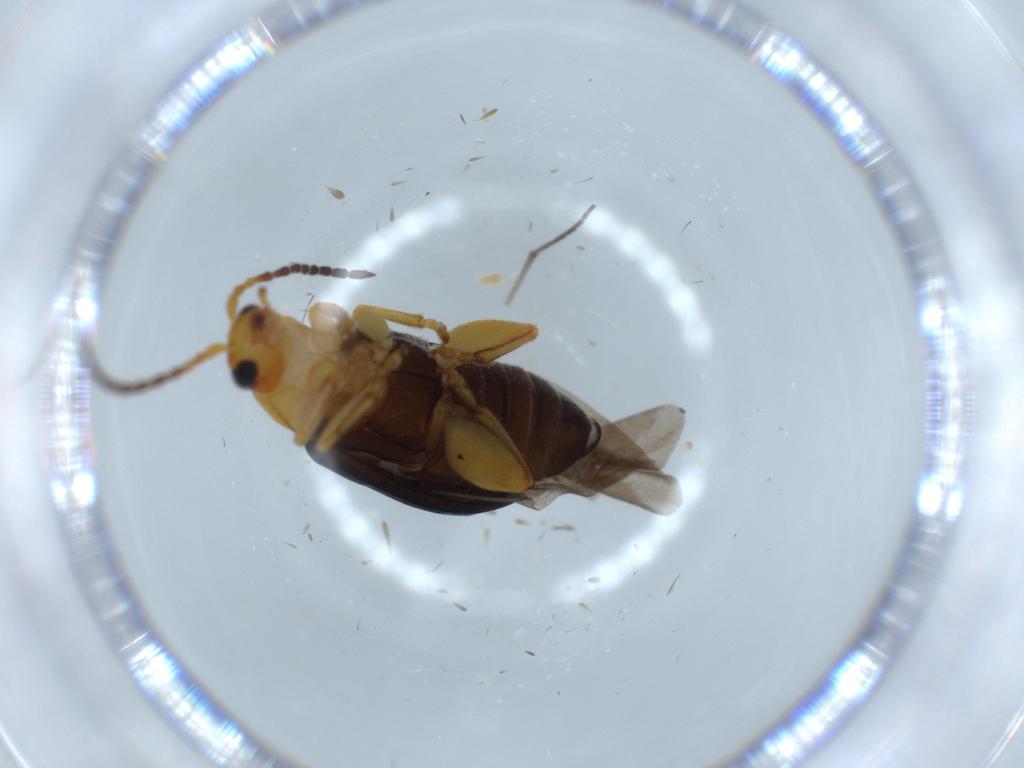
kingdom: Animalia
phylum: Arthropoda
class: Insecta
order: Coleoptera
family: Chrysomelidae
